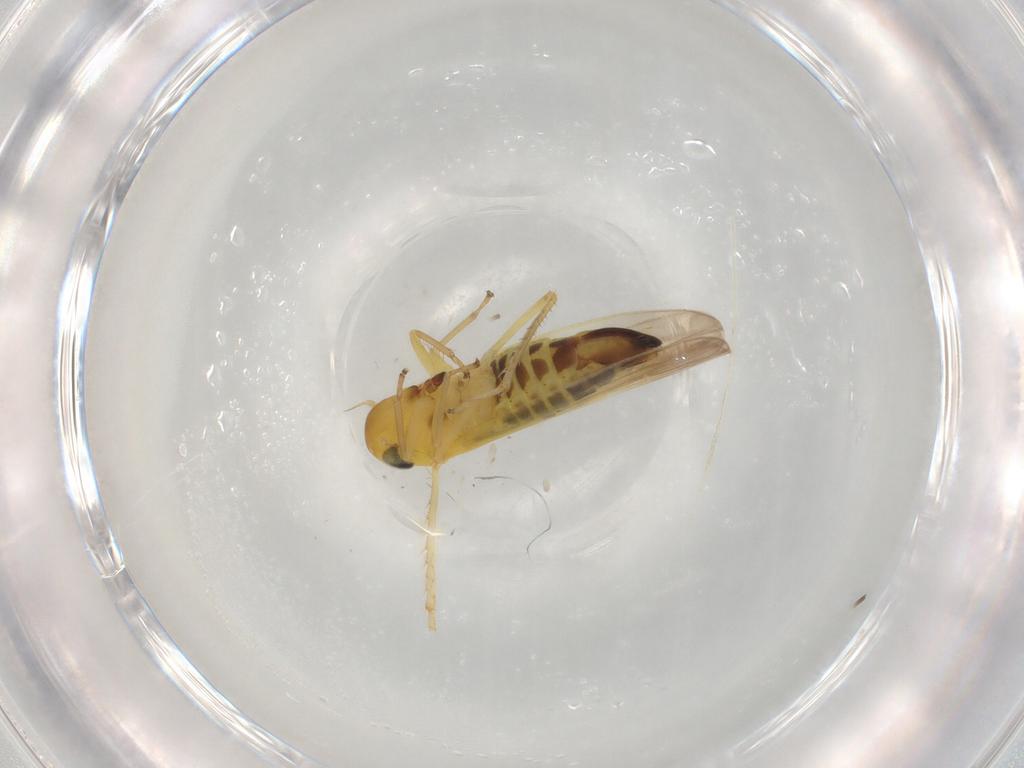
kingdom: Animalia
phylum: Arthropoda
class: Insecta
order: Hemiptera
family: Cicadellidae
